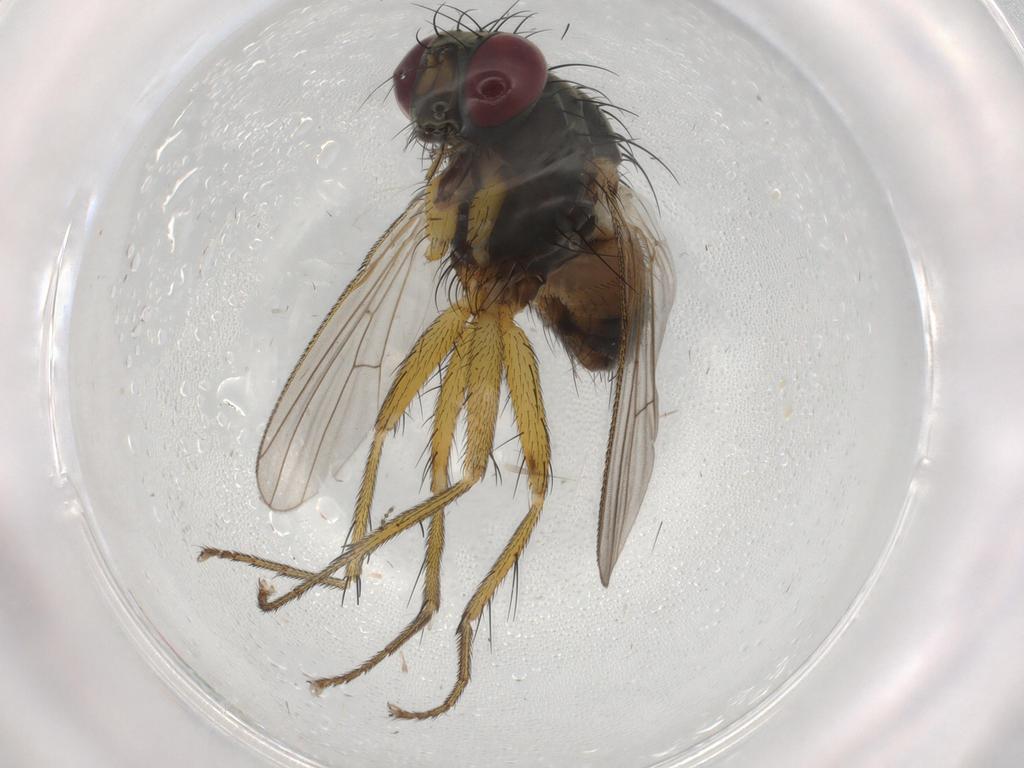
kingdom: Animalia
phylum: Arthropoda
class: Insecta
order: Diptera
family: Muscidae
